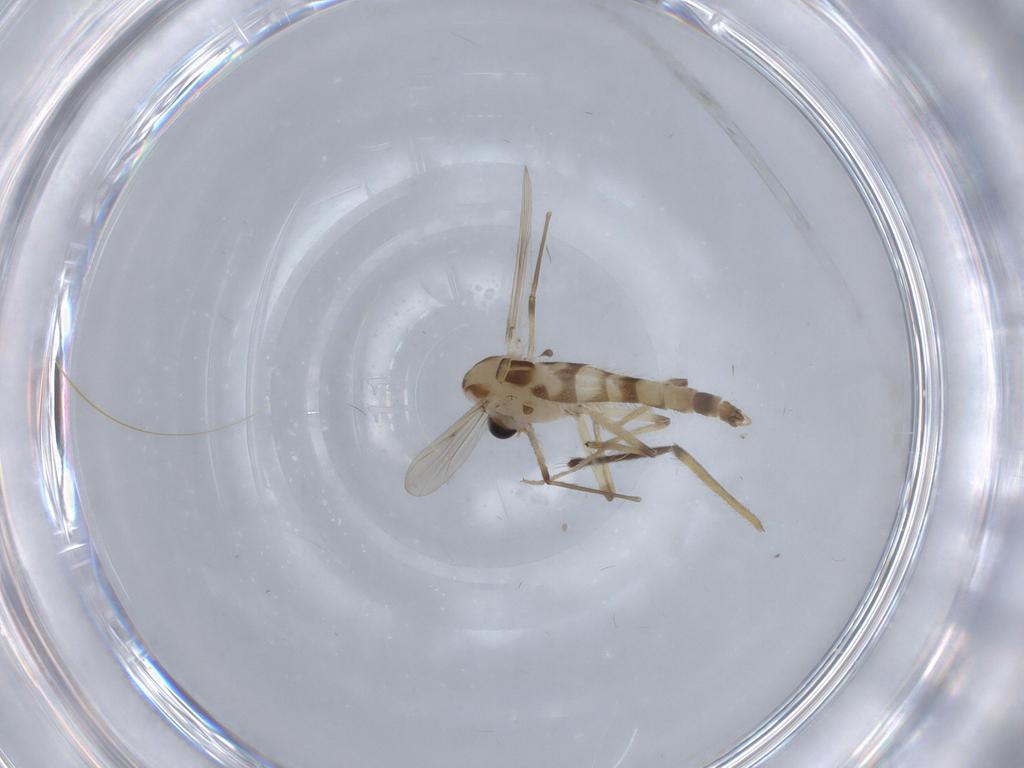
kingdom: Animalia
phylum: Arthropoda
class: Insecta
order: Diptera
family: Chironomidae
